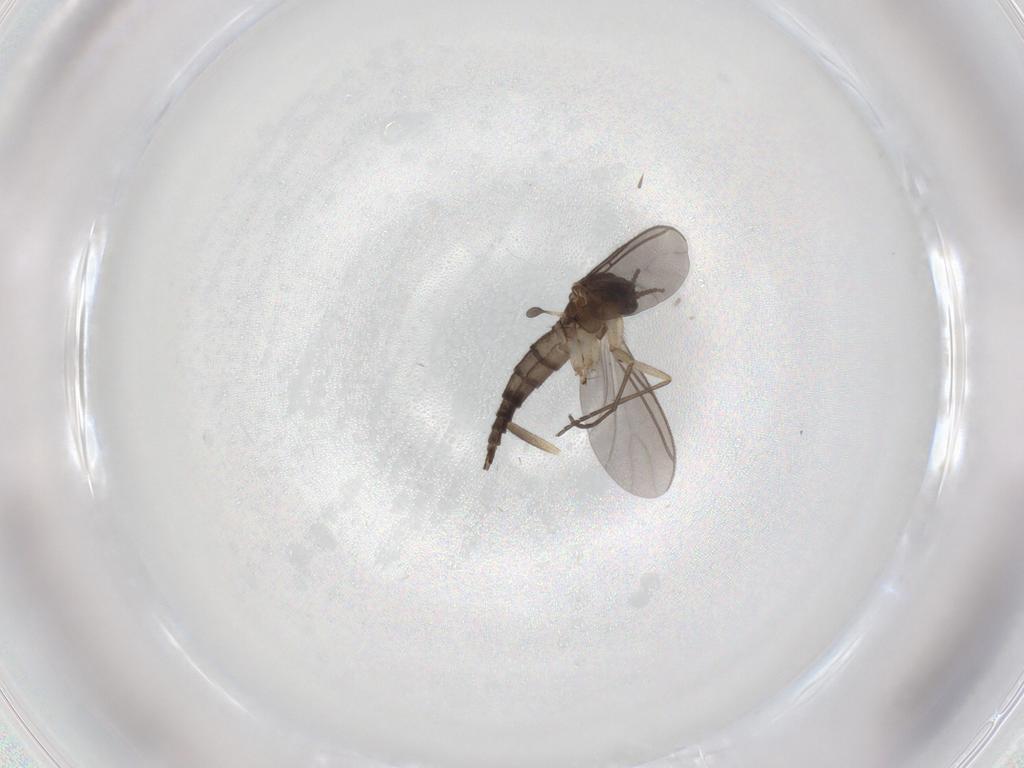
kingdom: Animalia
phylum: Arthropoda
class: Insecta
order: Diptera
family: Sciaridae
